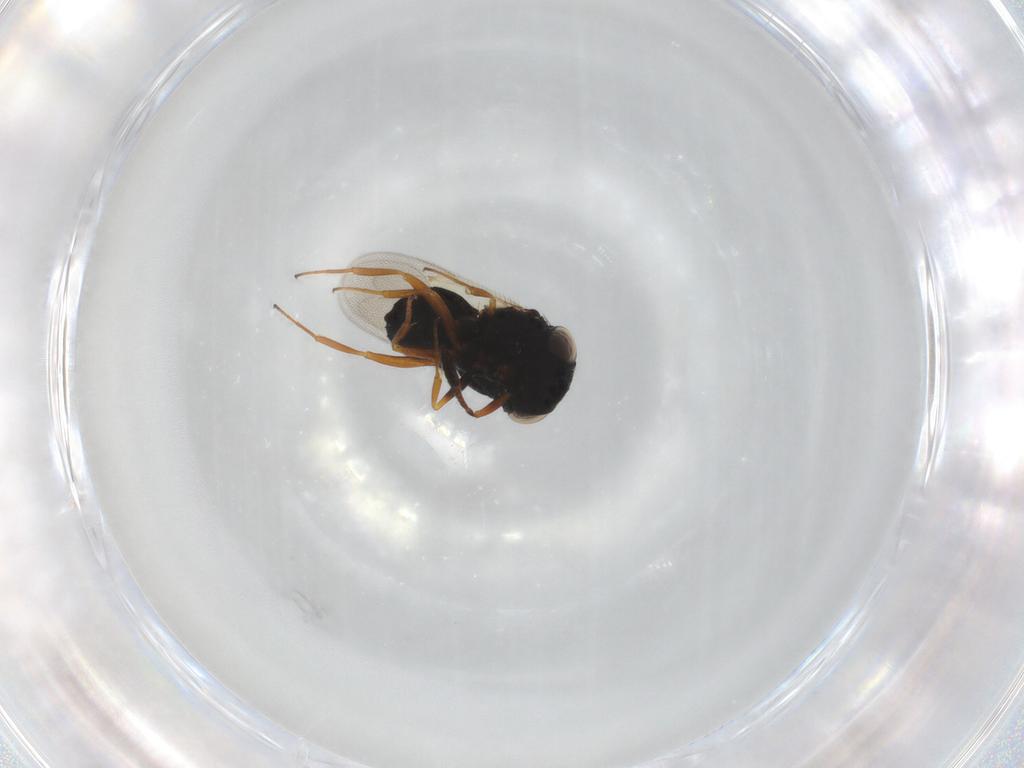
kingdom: Animalia
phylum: Arthropoda
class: Insecta
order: Hymenoptera
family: Scelionidae
